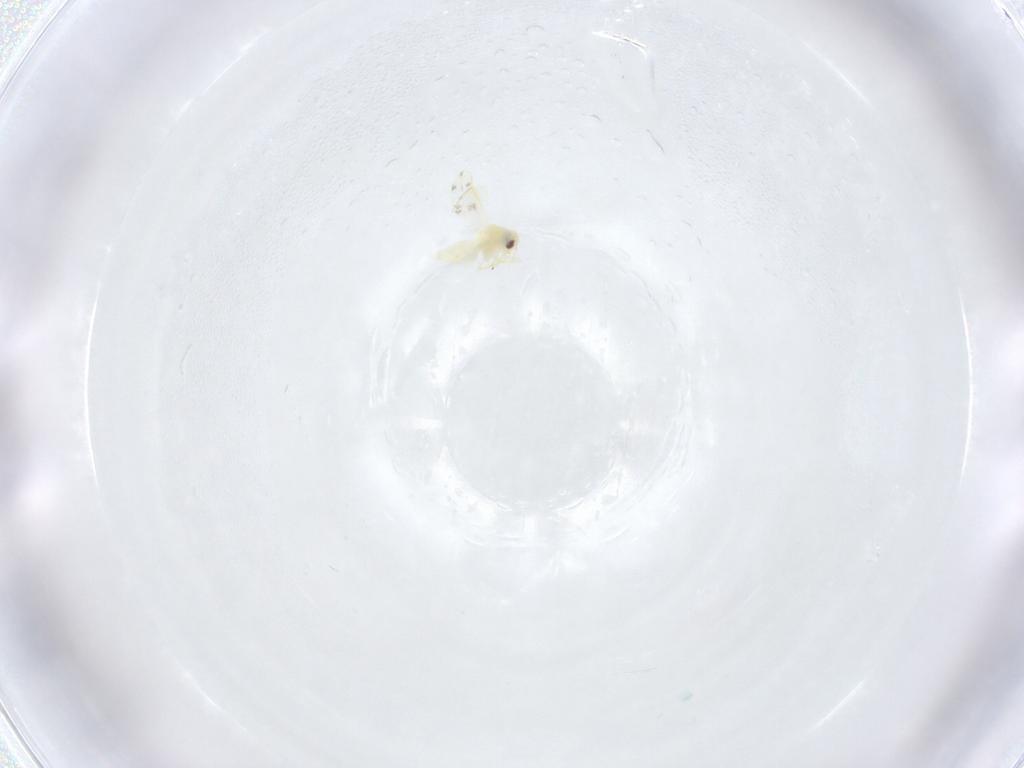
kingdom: Animalia
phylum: Arthropoda
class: Insecta
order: Hemiptera
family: Aleyrodidae
